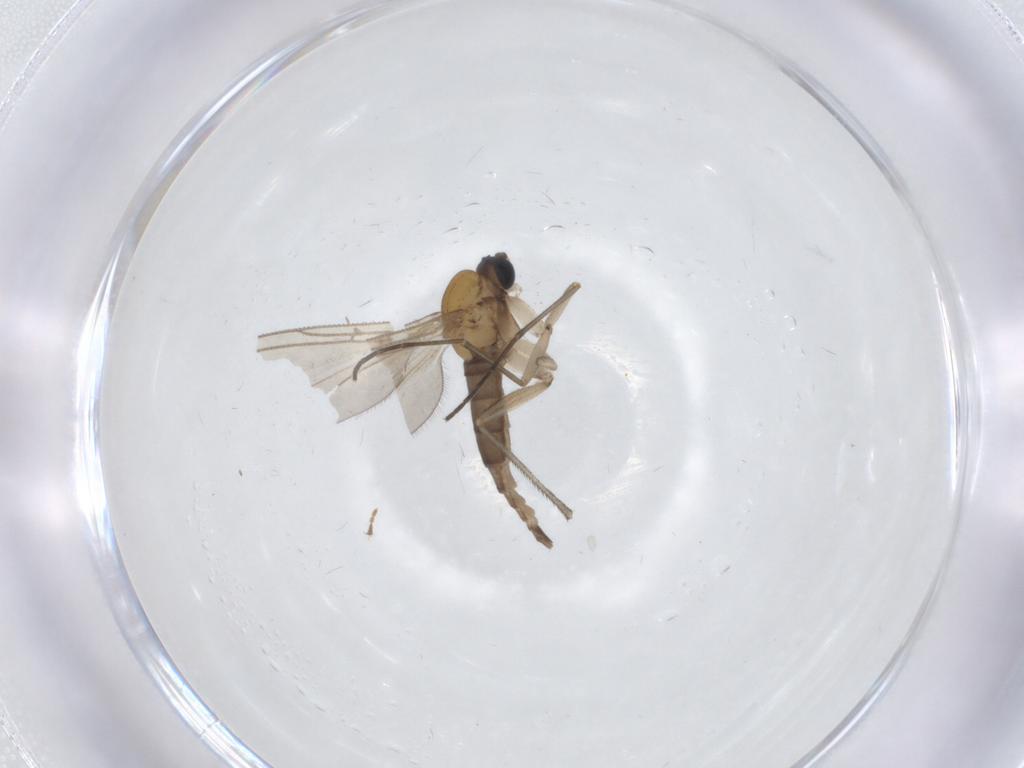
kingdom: Animalia
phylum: Arthropoda
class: Insecta
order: Diptera
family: Sciaridae
